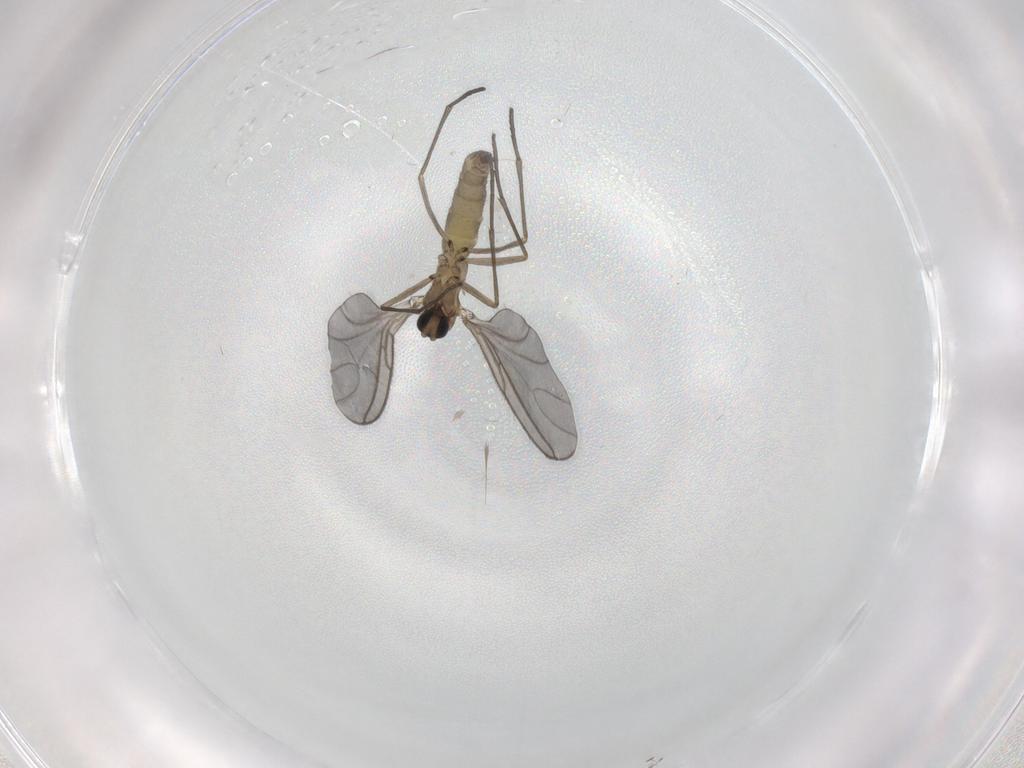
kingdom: Animalia
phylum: Arthropoda
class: Insecta
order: Diptera
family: Sciaridae
